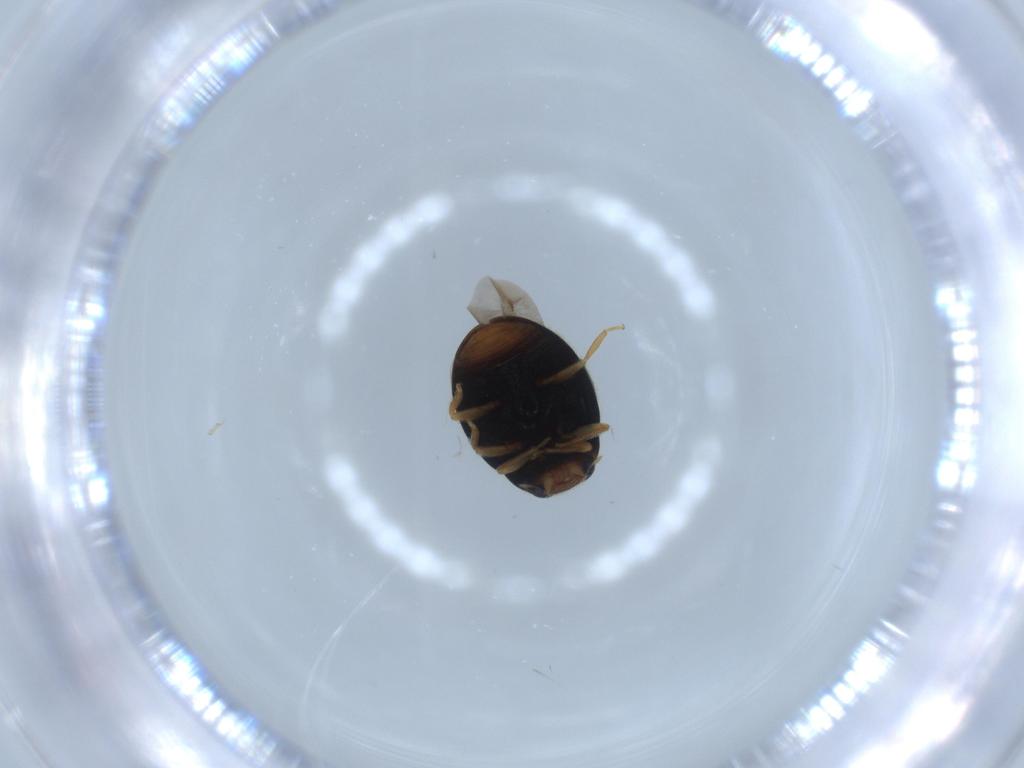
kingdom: Animalia
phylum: Arthropoda
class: Insecta
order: Coleoptera
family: Coccinellidae
